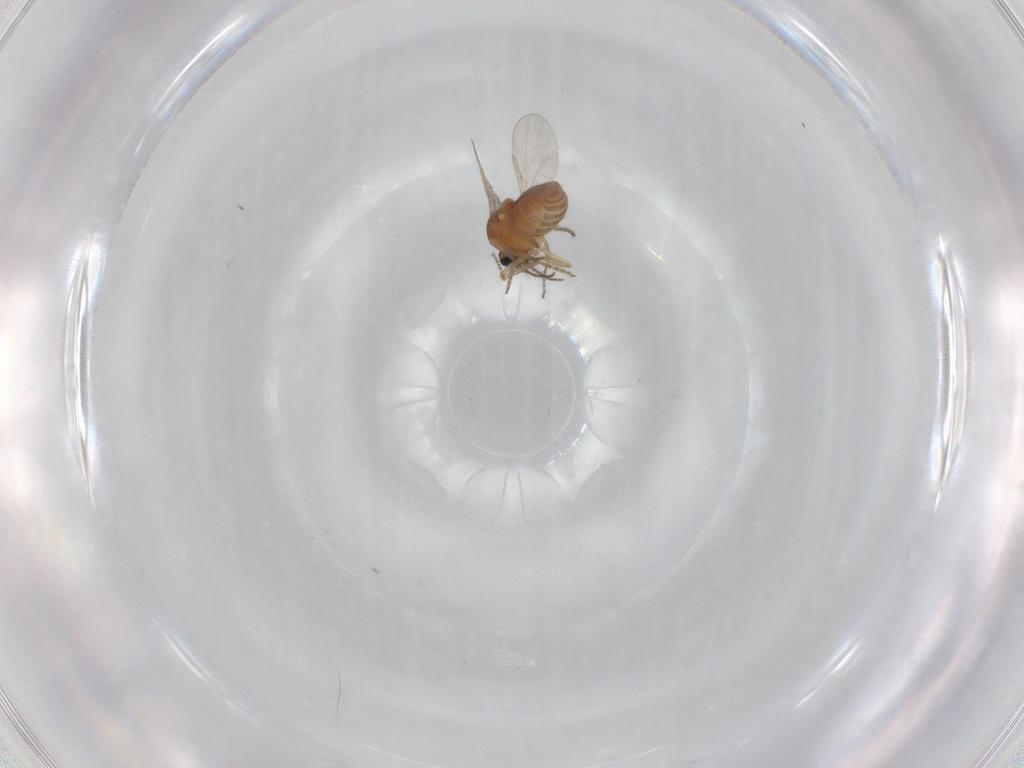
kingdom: Animalia
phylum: Arthropoda
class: Insecta
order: Diptera
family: Ceratopogonidae
